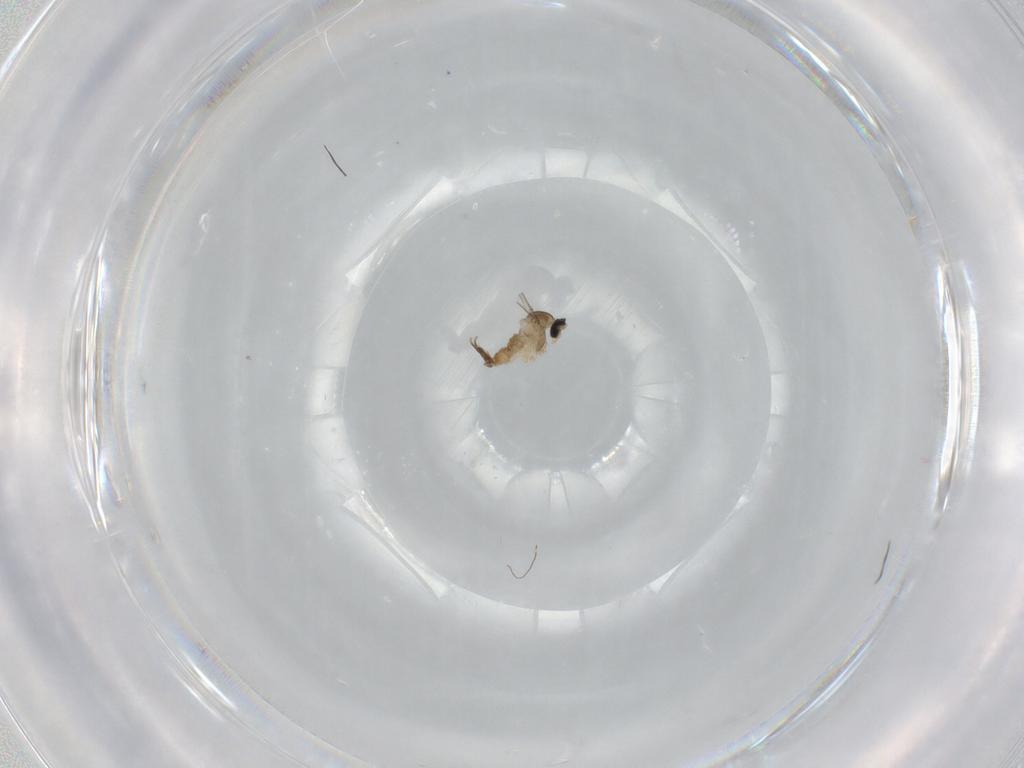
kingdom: Animalia
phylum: Arthropoda
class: Insecta
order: Diptera
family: Cecidomyiidae
